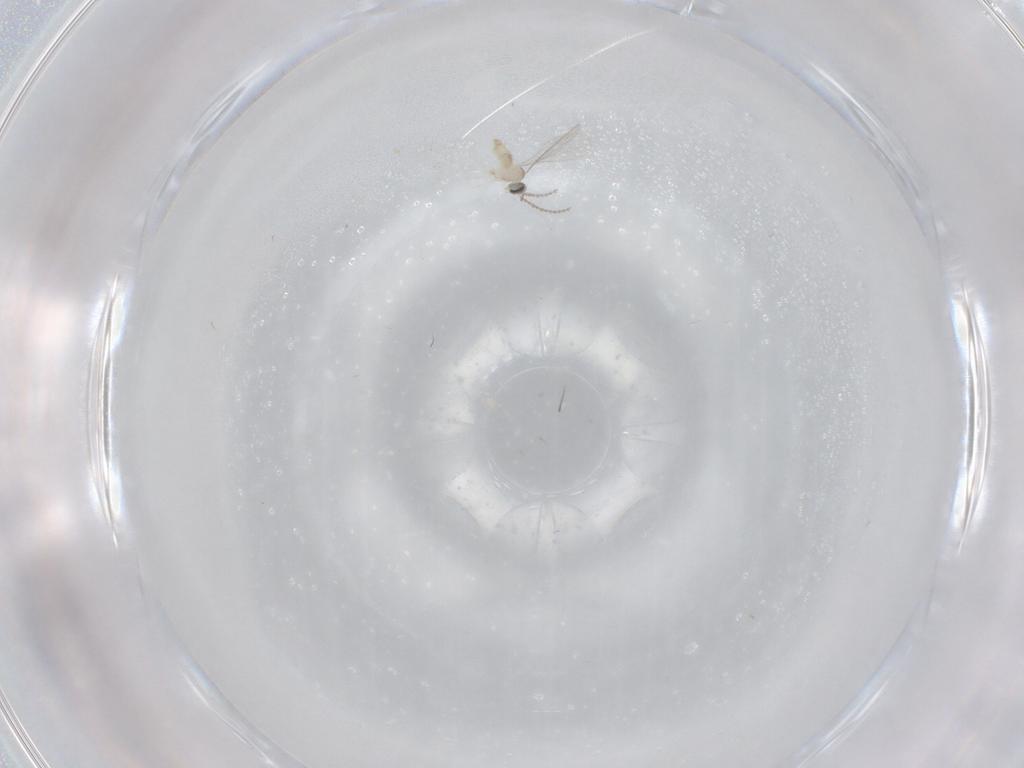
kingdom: Animalia
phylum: Arthropoda
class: Insecta
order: Diptera
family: Cecidomyiidae
